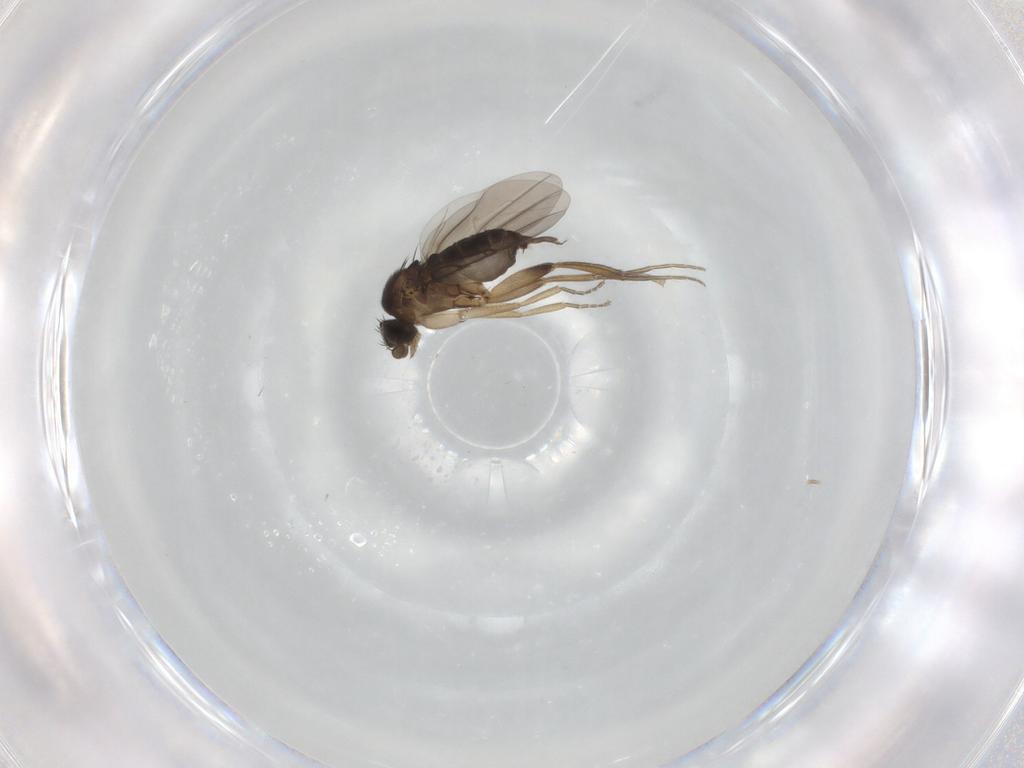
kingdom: Animalia
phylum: Arthropoda
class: Insecta
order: Diptera
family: Phoridae
